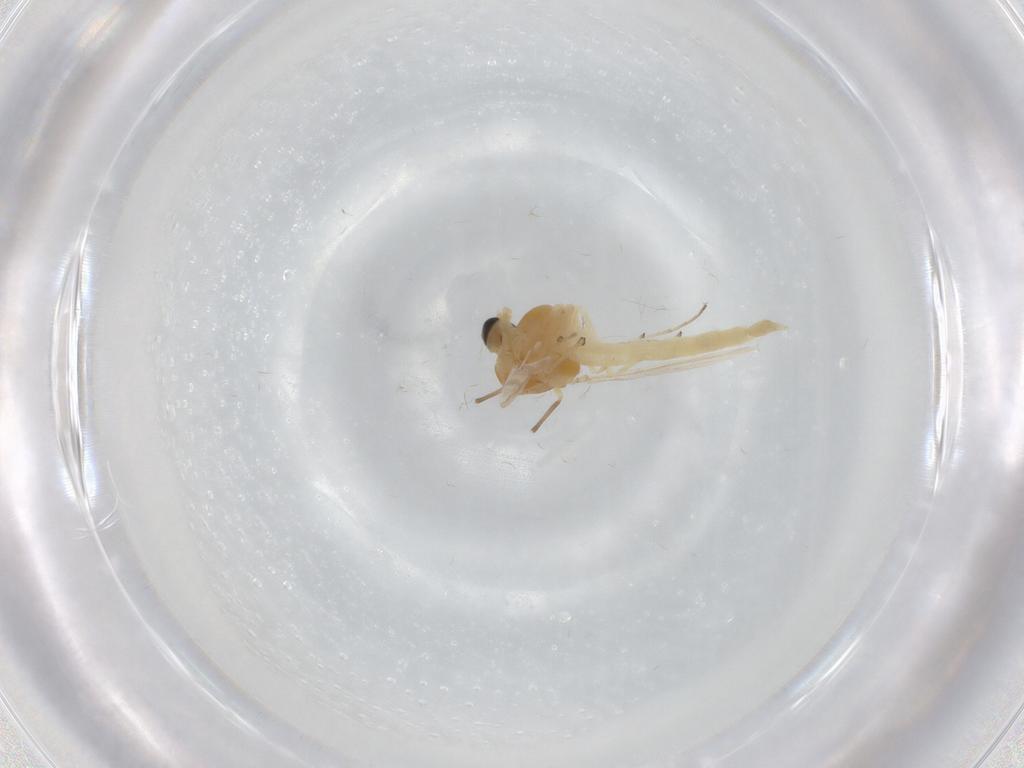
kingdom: Animalia
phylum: Arthropoda
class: Insecta
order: Diptera
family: Chironomidae
